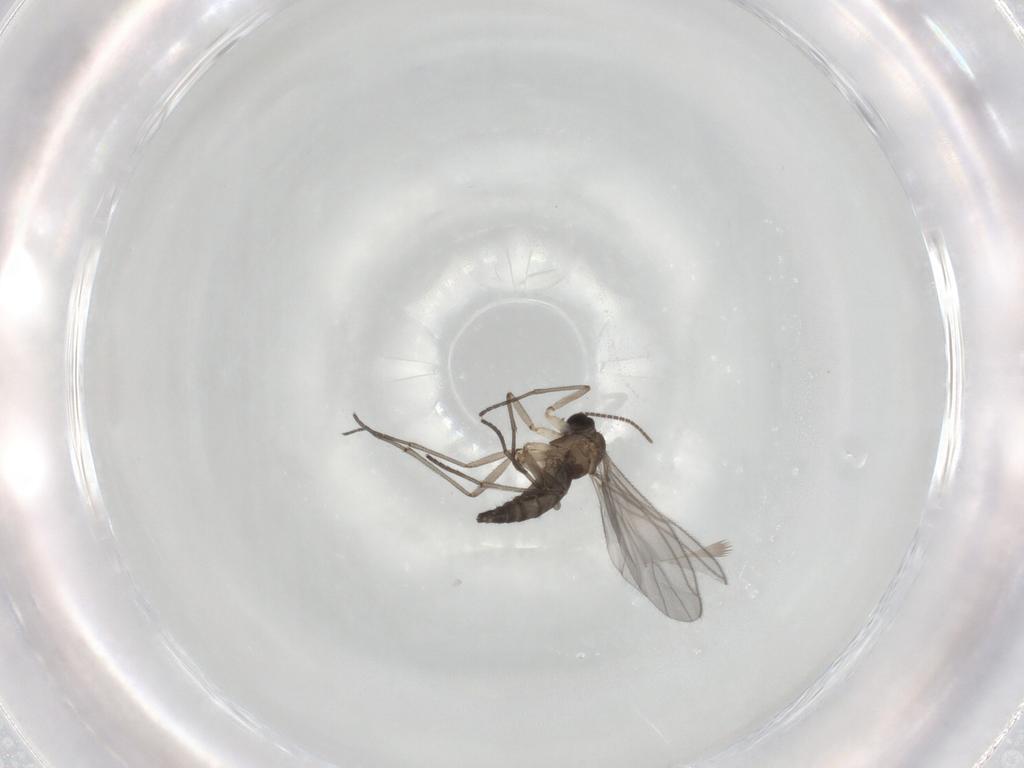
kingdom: Animalia
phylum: Arthropoda
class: Insecta
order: Diptera
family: Sciaridae
